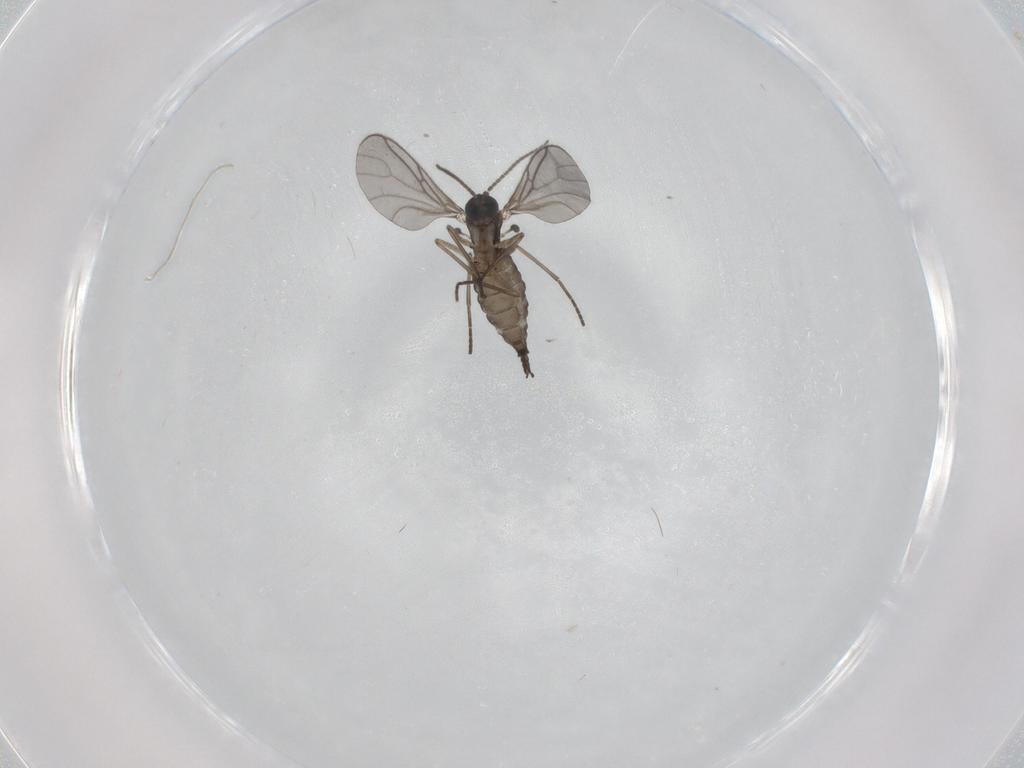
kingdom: Animalia
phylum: Arthropoda
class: Insecta
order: Diptera
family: Sciaridae
